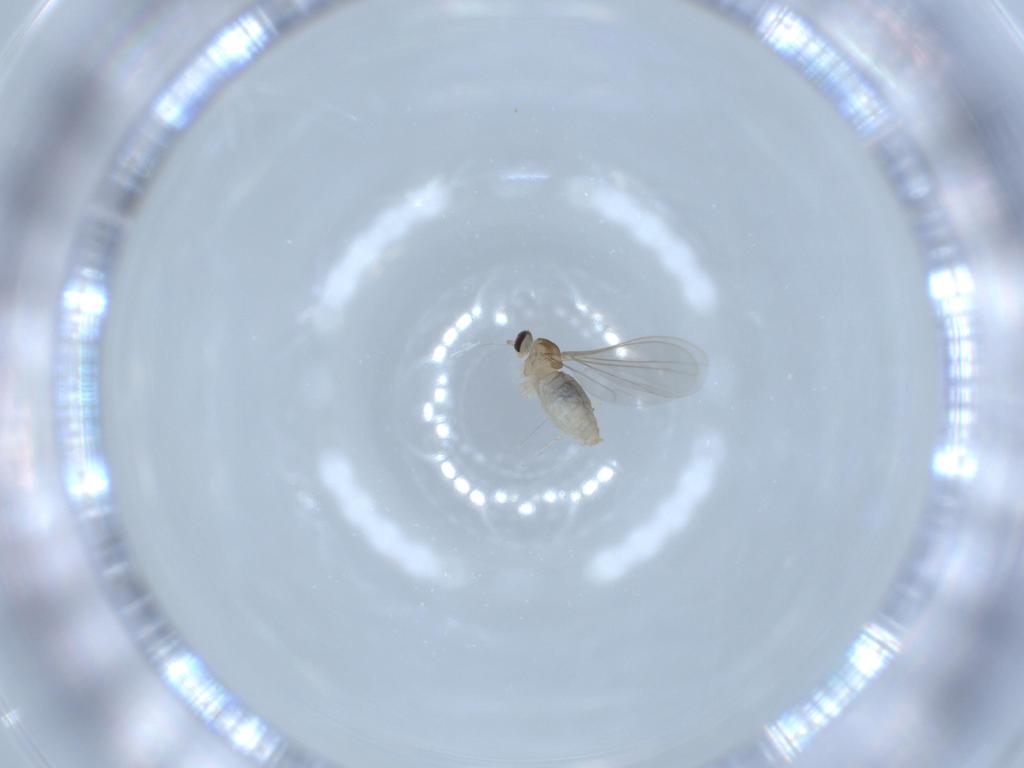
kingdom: Animalia
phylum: Arthropoda
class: Insecta
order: Diptera
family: Cecidomyiidae
